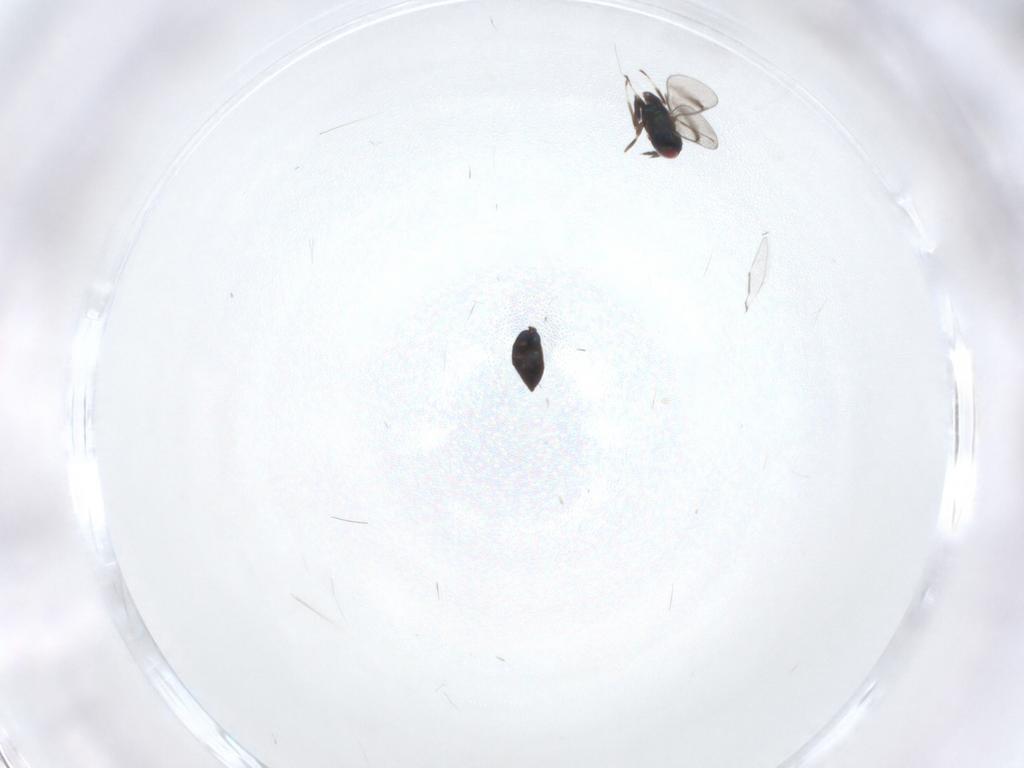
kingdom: Animalia
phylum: Arthropoda
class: Insecta
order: Hymenoptera
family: Eulophidae
